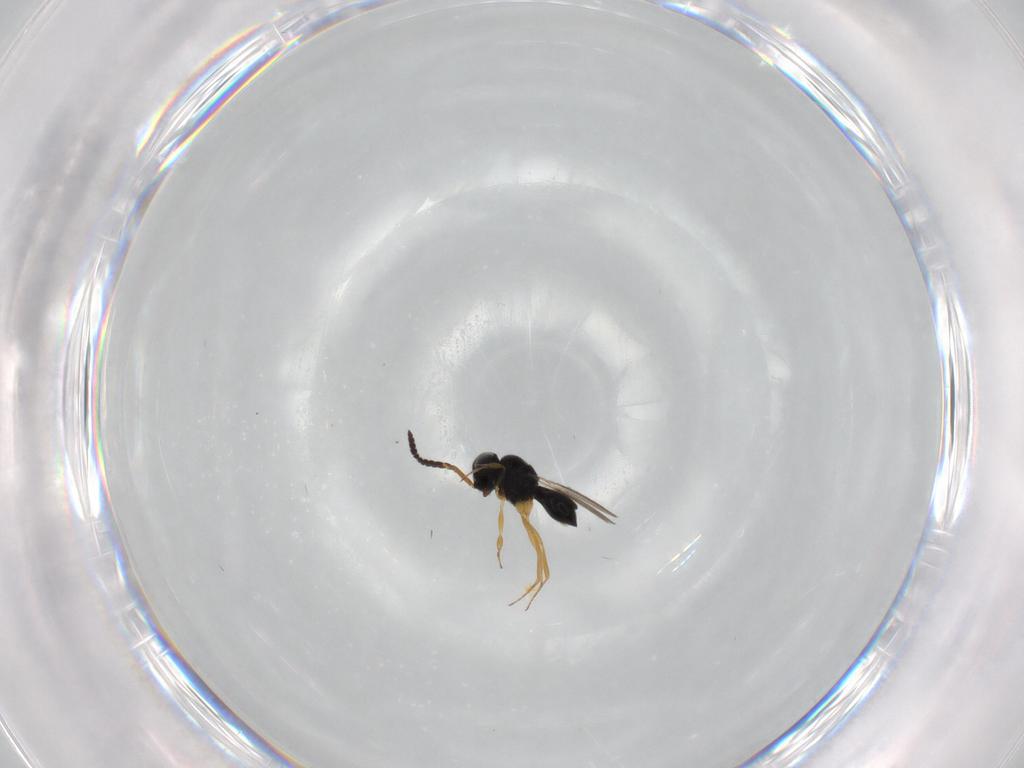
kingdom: Animalia
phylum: Arthropoda
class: Insecta
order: Hymenoptera
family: Scelionidae
